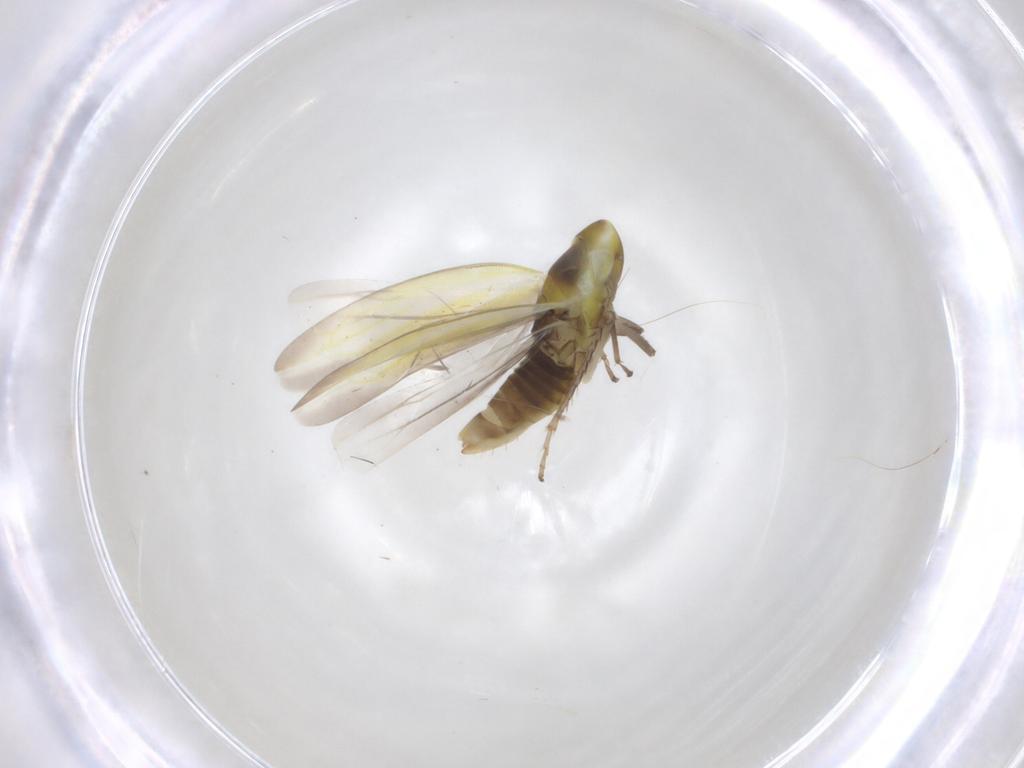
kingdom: Animalia
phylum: Arthropoda
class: Insecta
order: Hemiptera
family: Cicadellidae
